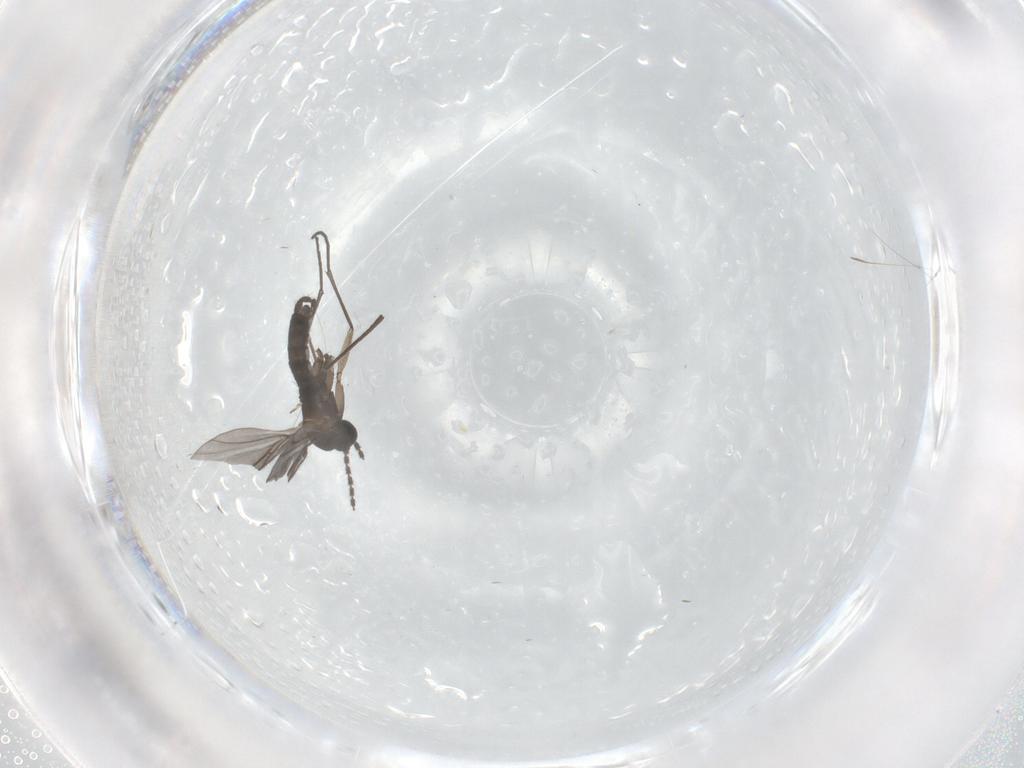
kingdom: Animalia
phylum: Arthropoda
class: Insecta
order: Diptera
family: Sciaridae
